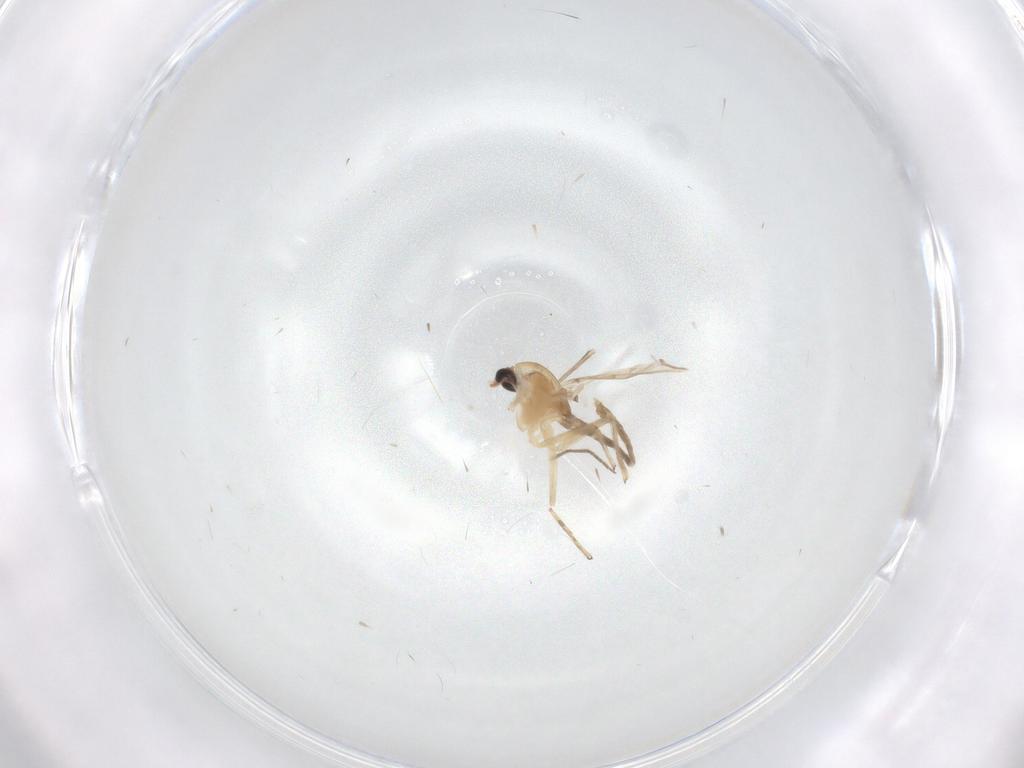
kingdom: Animalia
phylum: Arthropoda
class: Insecta
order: Diptera
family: Chironomidae
